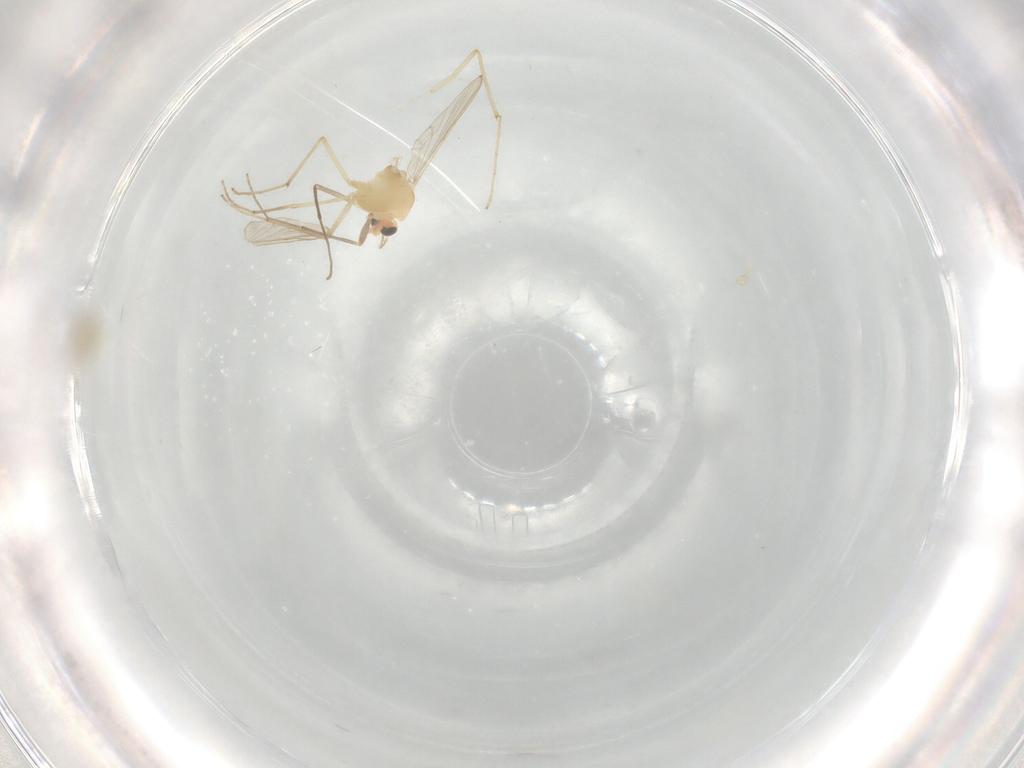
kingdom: Animalia
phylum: Arthropoda
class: Insecta
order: Diptera
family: Chironomidae
